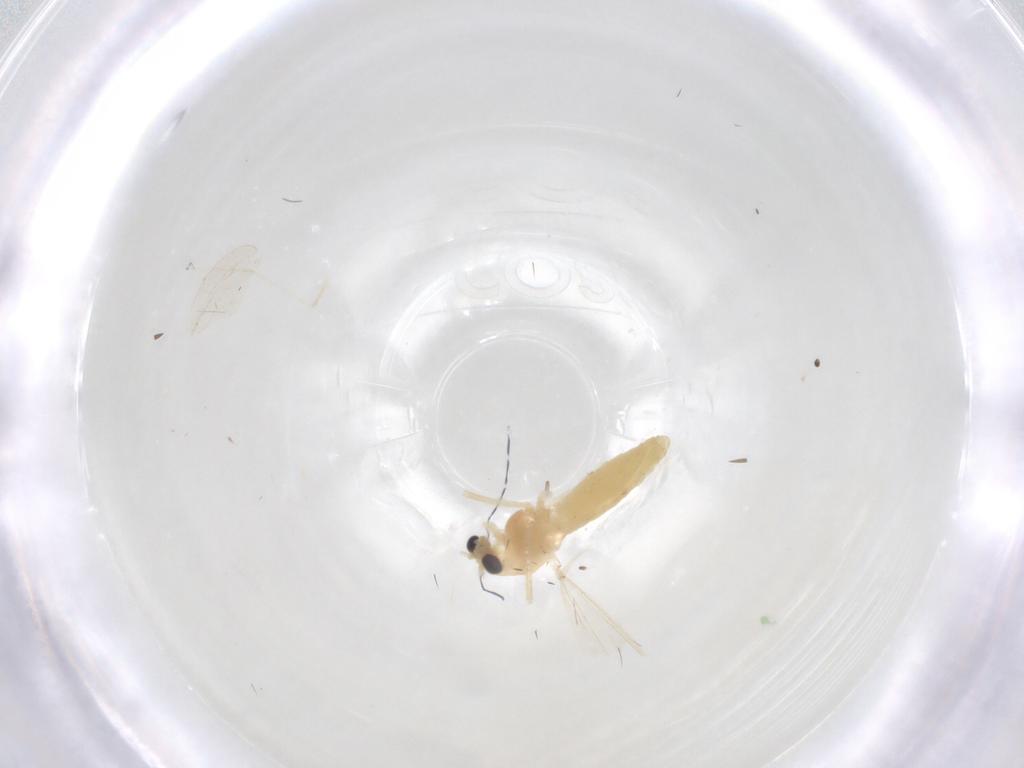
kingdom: Animalia
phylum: Arthropoda
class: Insecta
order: Diptera
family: Chironomidae
